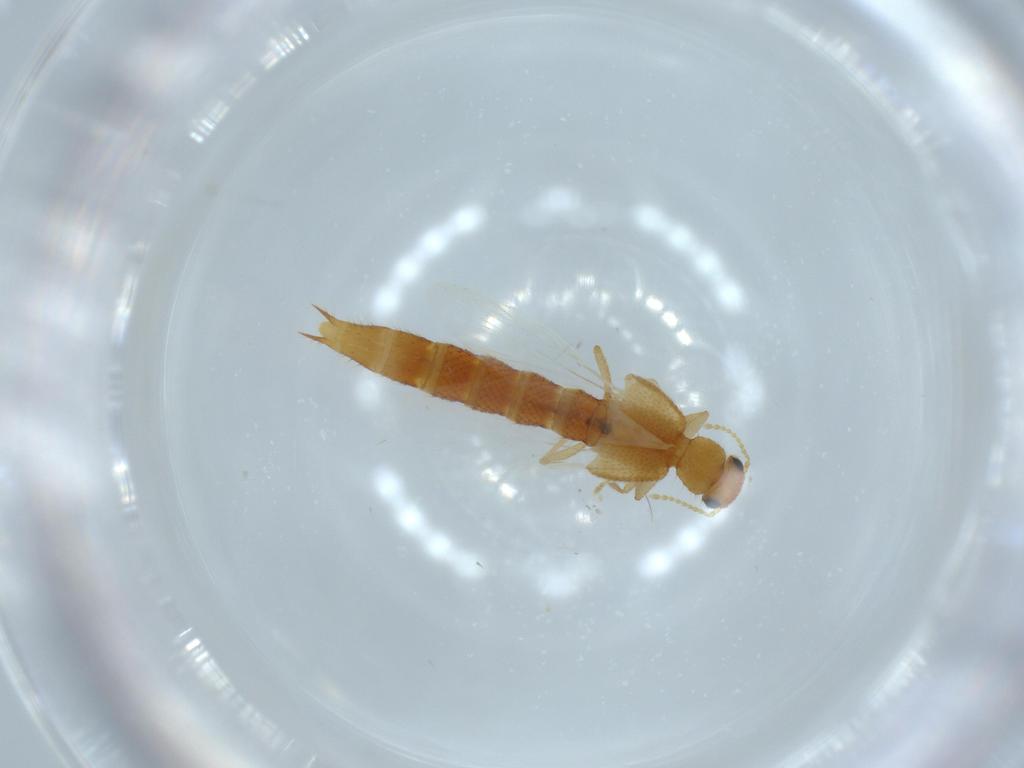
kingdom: Animalia
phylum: Arthropoda
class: Insecta
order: Coleoptera
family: Staphylinidae
